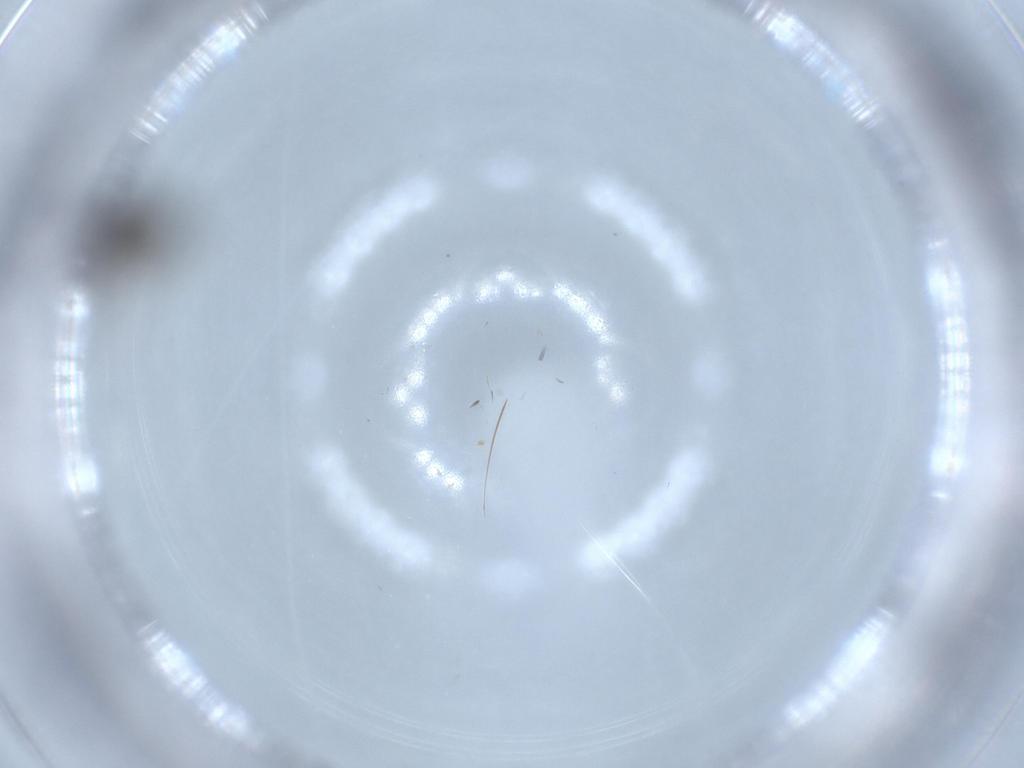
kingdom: Animalia
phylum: Arthropoda
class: Insecta
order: Diptera
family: Phoridae
